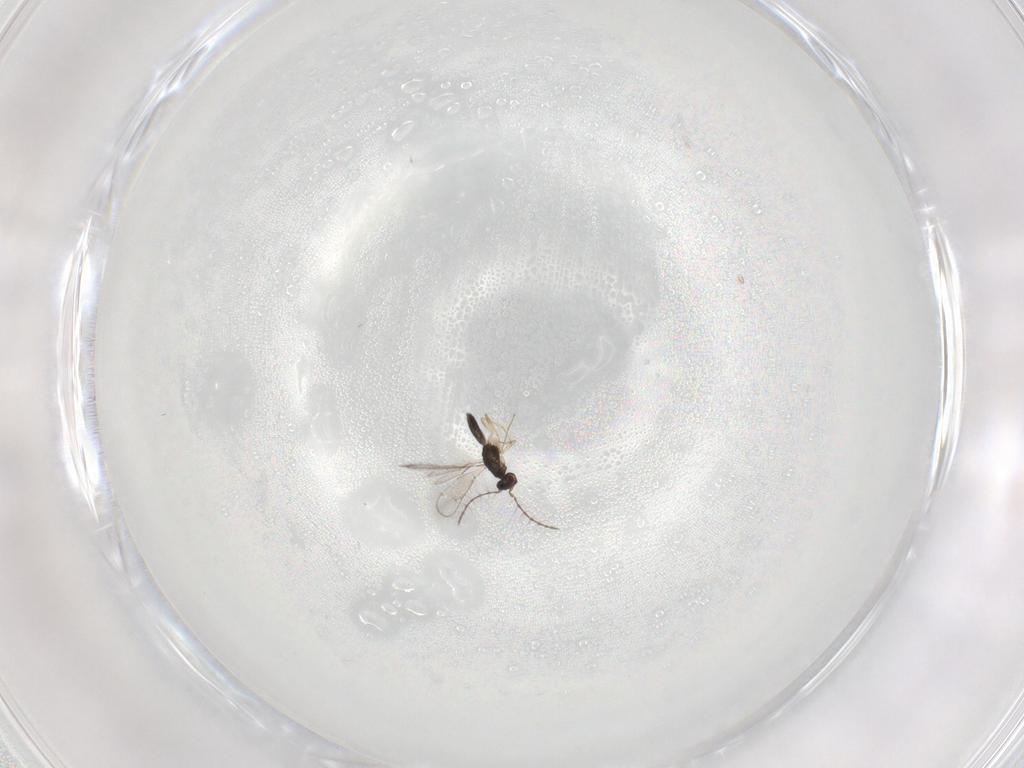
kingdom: Animalia
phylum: Arthropoda
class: Insecta
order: Hymenoptera
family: Pteromalidae
